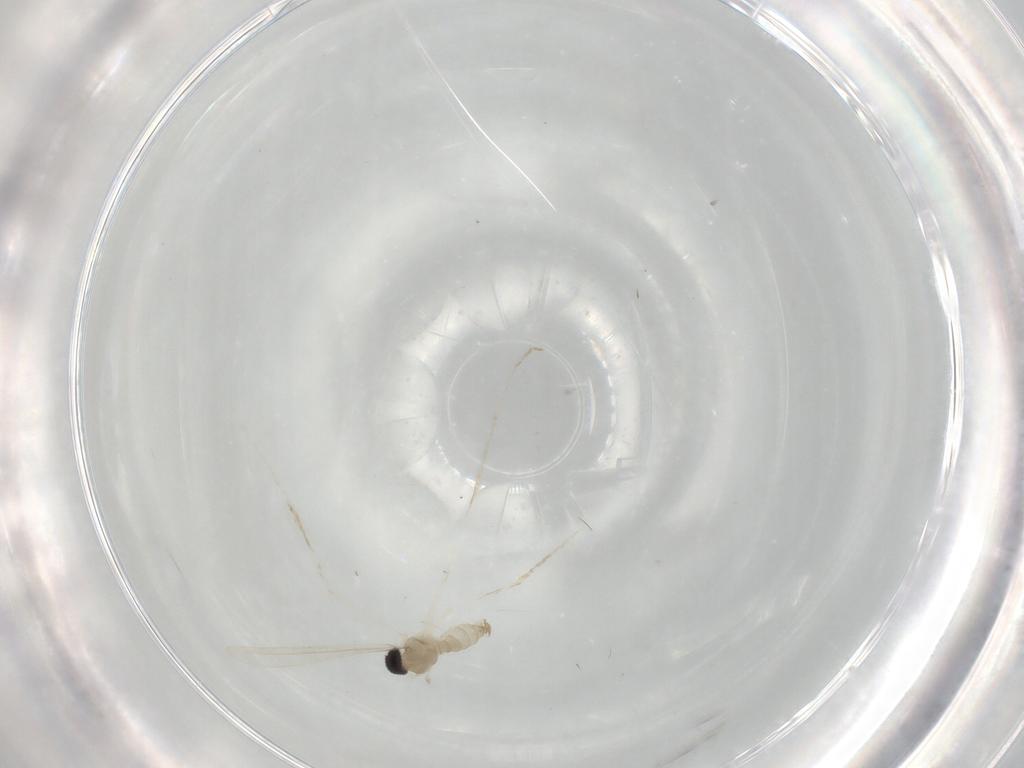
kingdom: Animalia
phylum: Arthropoda
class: Insecta
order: Diptera
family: Cecidomyiidae
